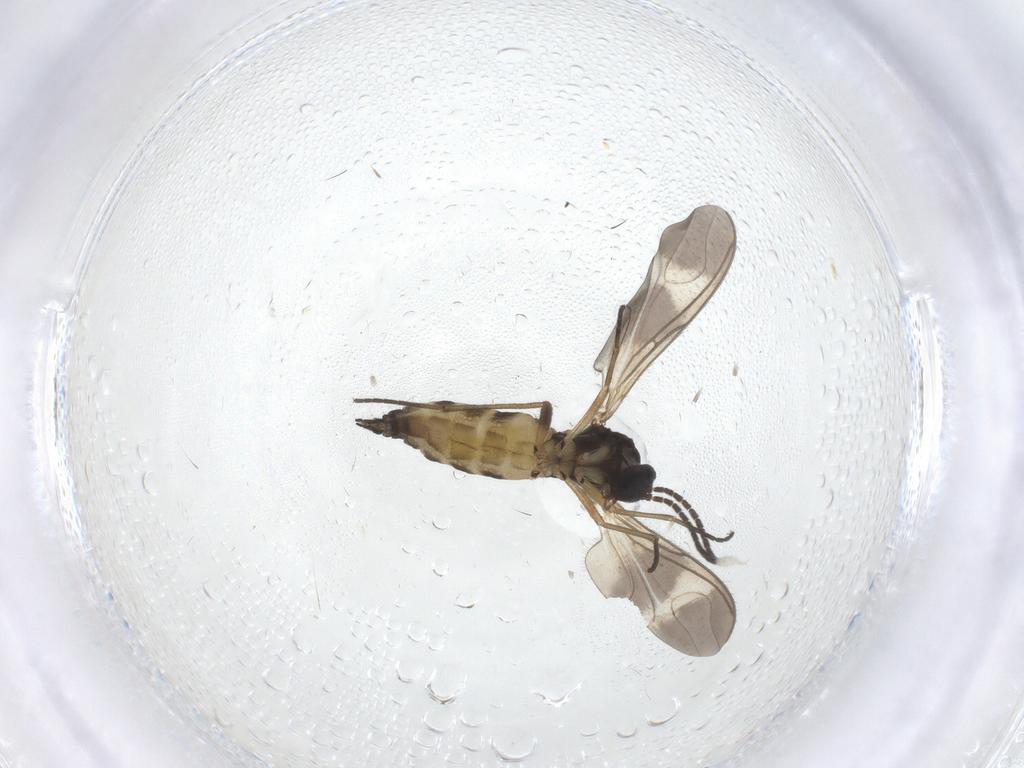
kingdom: Animalia
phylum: Arthropoda
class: Insecta
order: Diptera
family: Sciaridae
